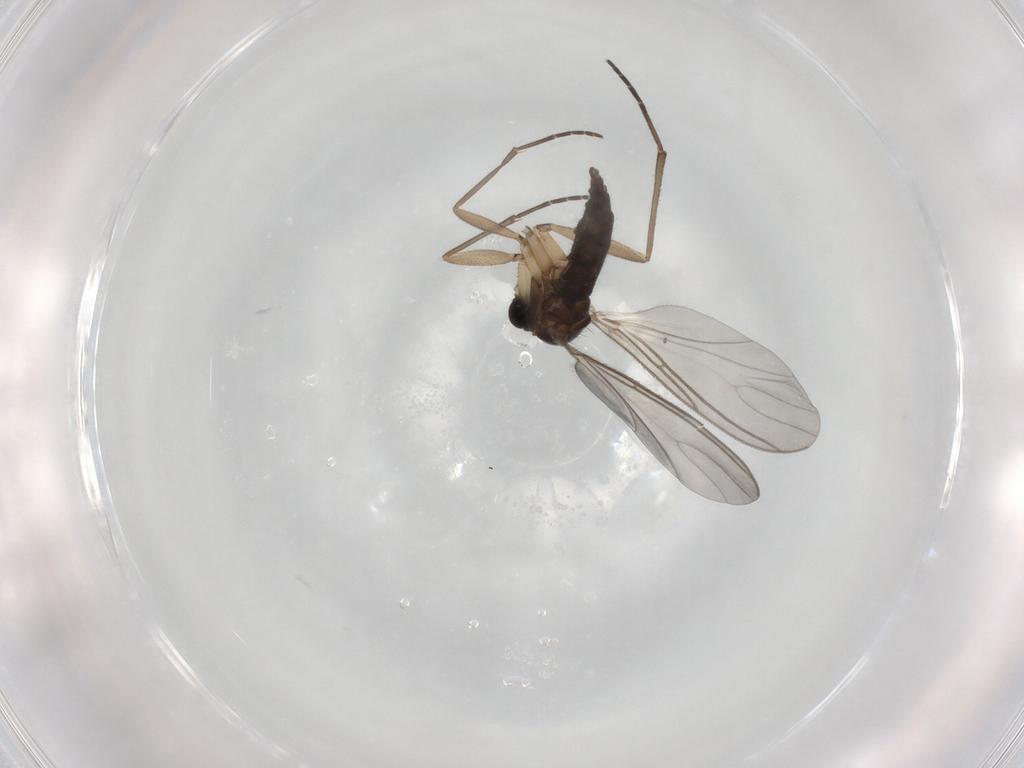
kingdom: Animalia
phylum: Arthropoda
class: Insecta
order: Diptera
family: Sciaridae
